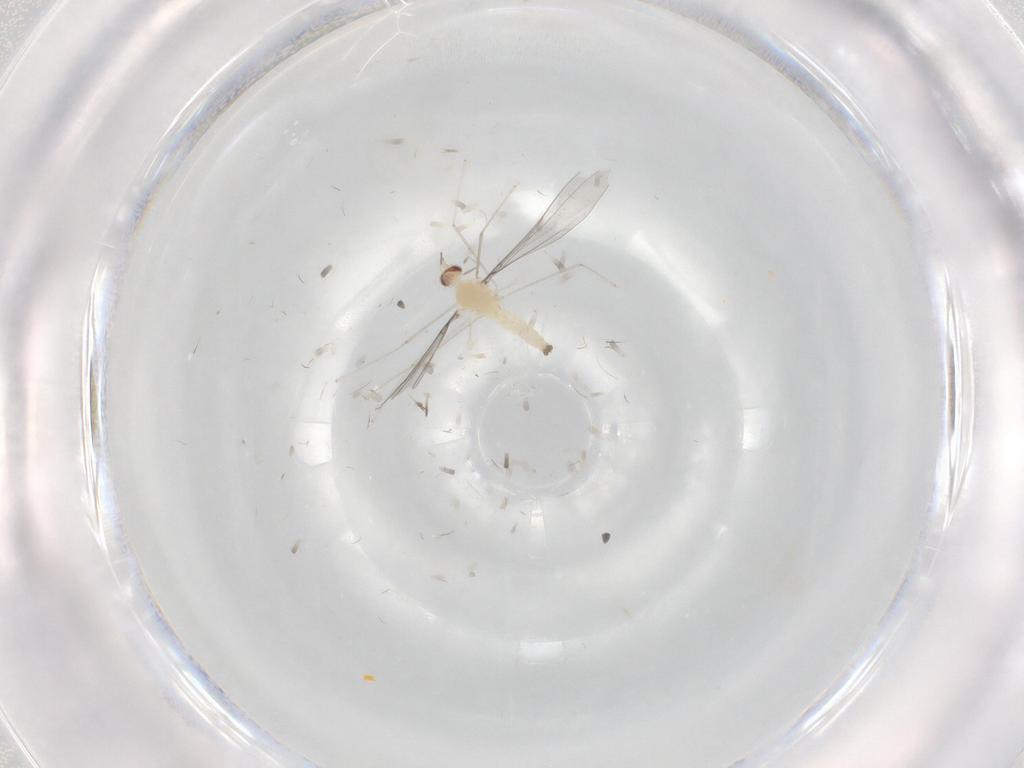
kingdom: Animalia
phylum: Arthropoda
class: Insecta
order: Diptera
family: Cecidomyiidae
